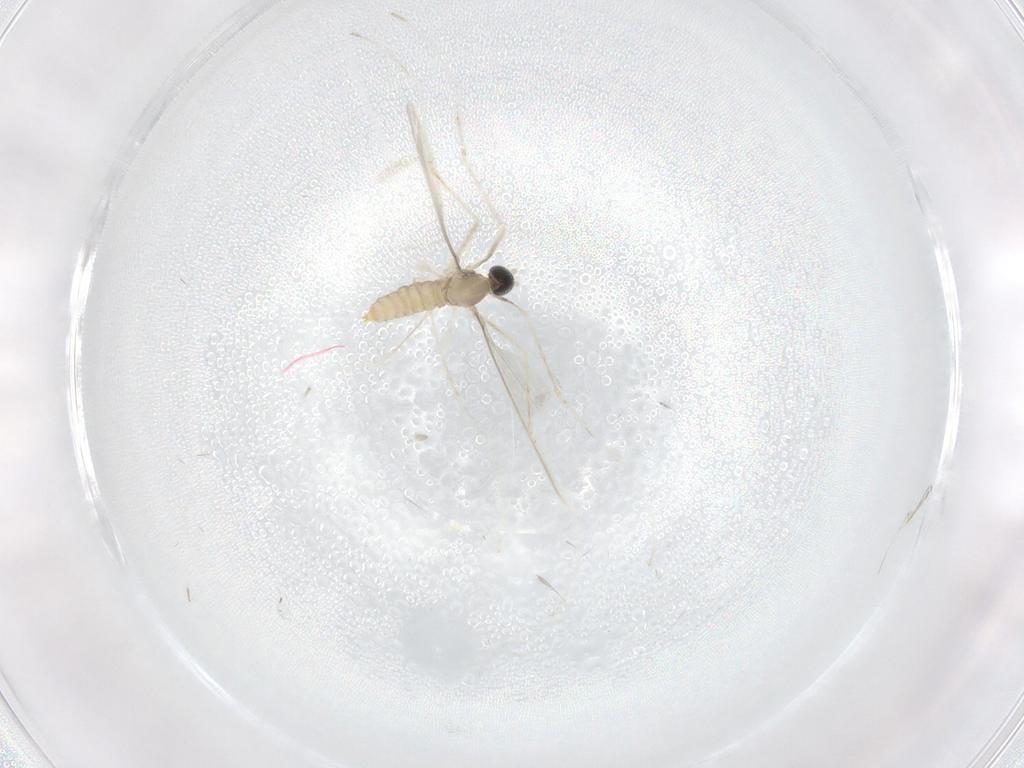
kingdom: Animalia
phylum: Arthropoda
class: Insecta
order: Diptera
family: Cecidomyiidae
